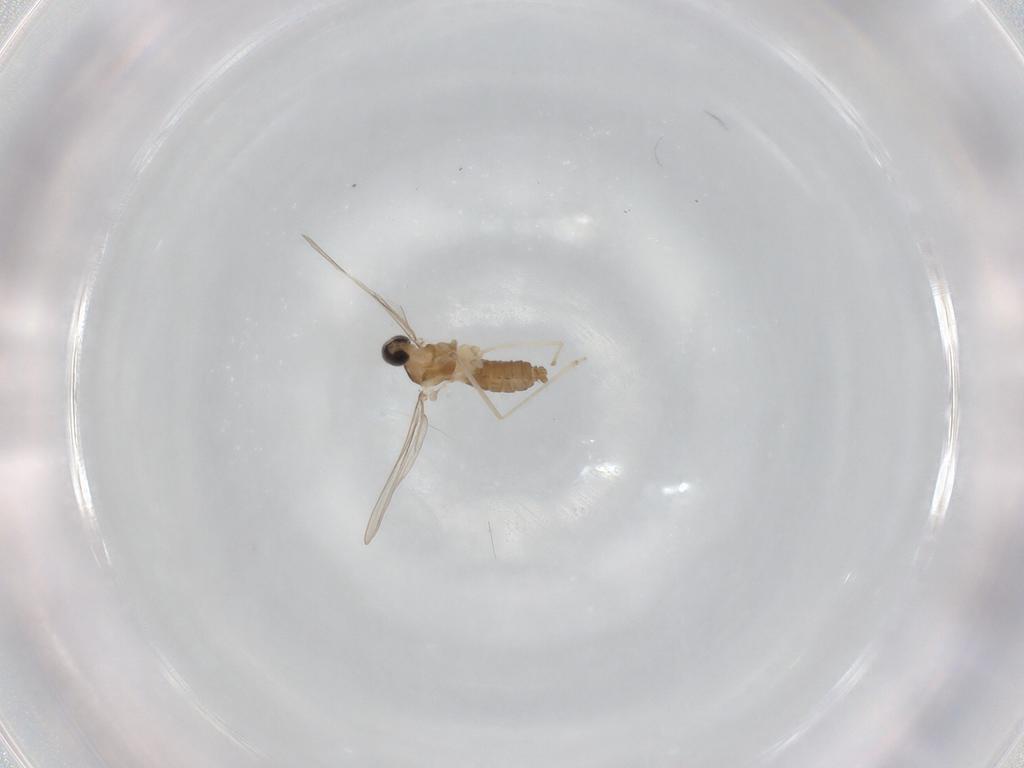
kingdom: Animalia
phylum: Arthropoda
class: Insecta
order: Diptera
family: Cecidomyiidae
